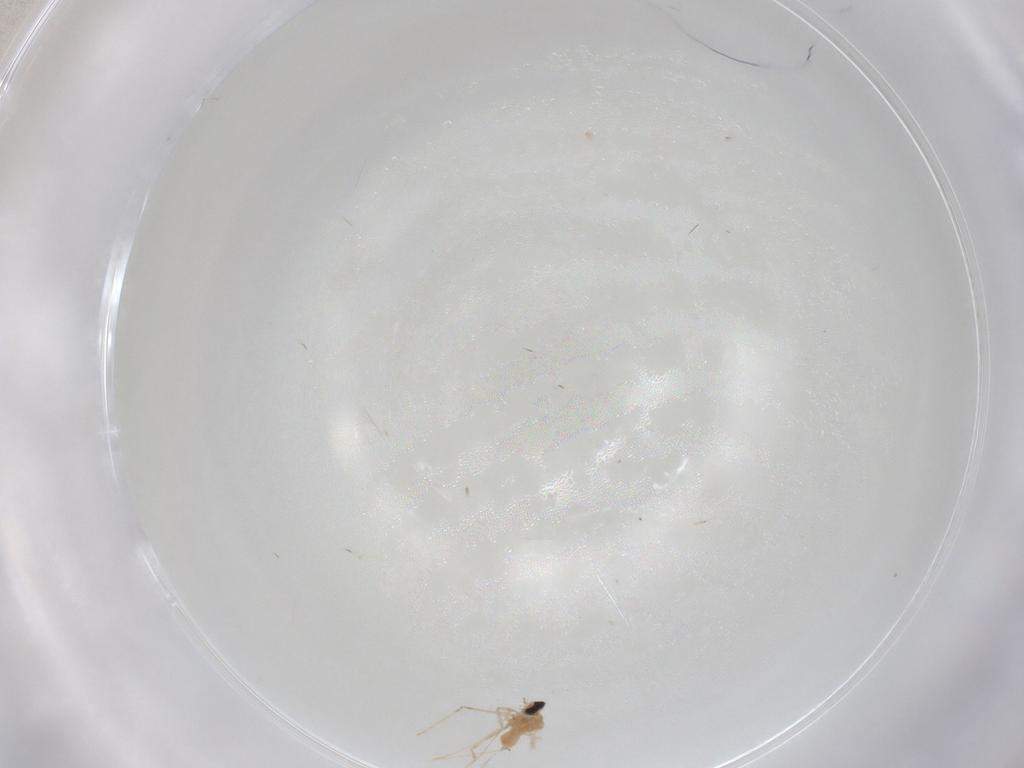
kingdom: Animalia
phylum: Arthropoda
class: Insecta
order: Diptera
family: Cecidomyiidae
